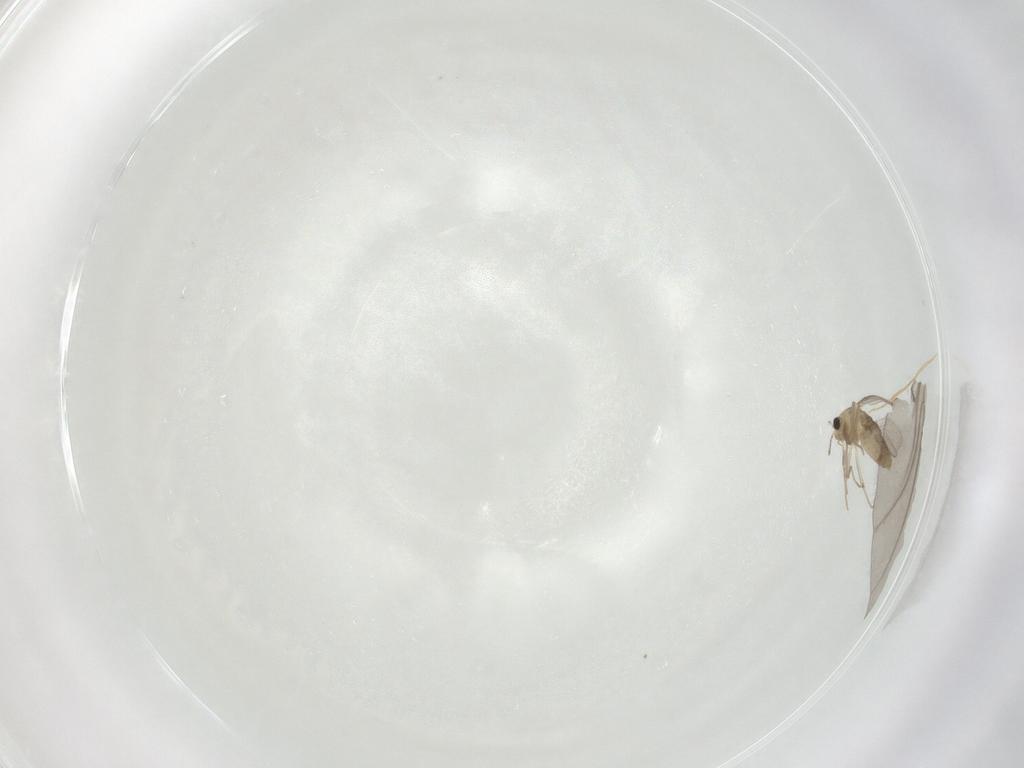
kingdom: Animalia
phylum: Arthropoda
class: Insecta
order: Diptera
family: Chironomidae
